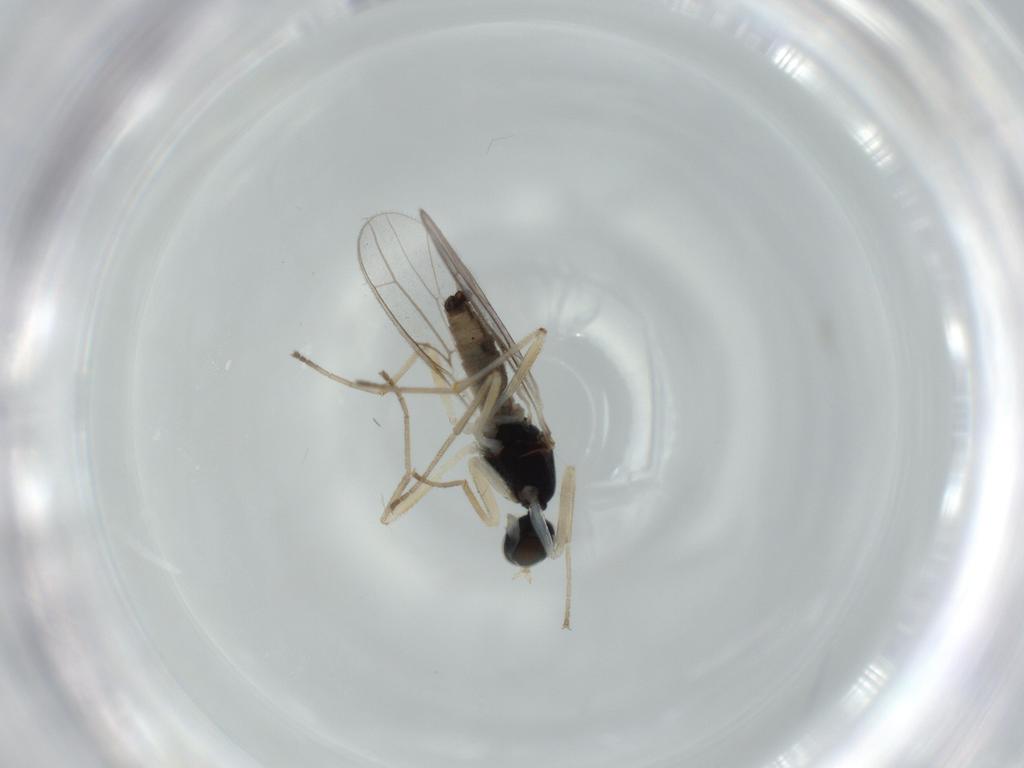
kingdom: Animalia
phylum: Arthropoda
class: Insecta
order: Diptera
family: Empididae
